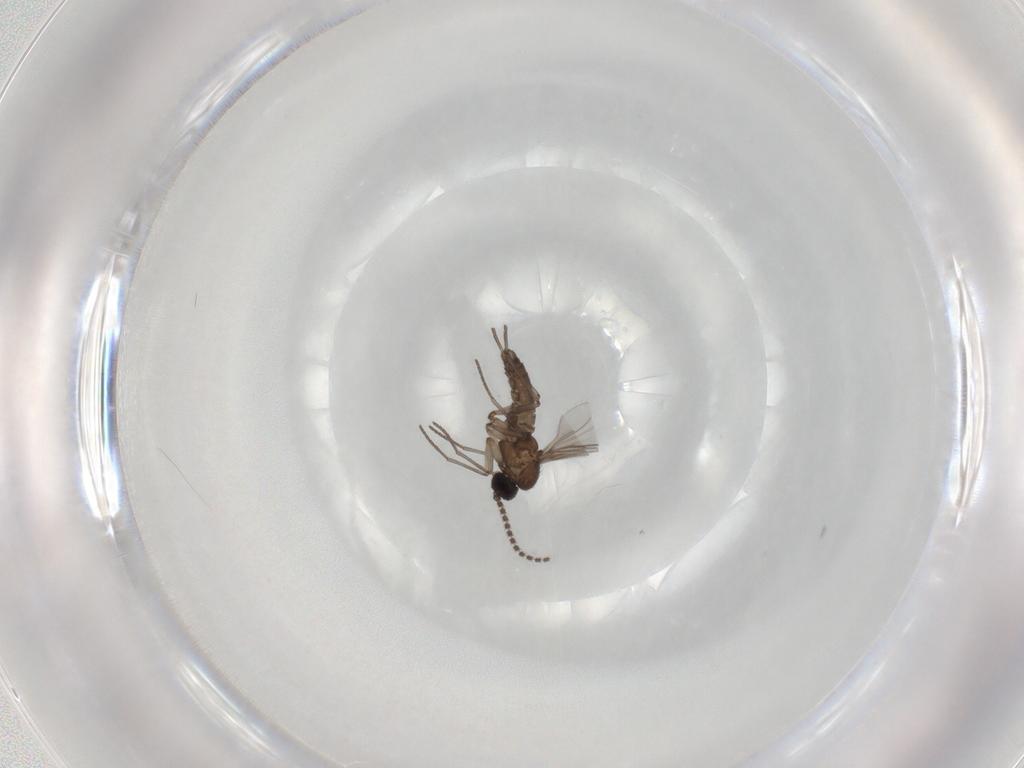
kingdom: Animalia
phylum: Arthropoda
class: Insecta
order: Diptera
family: Sciaridae
